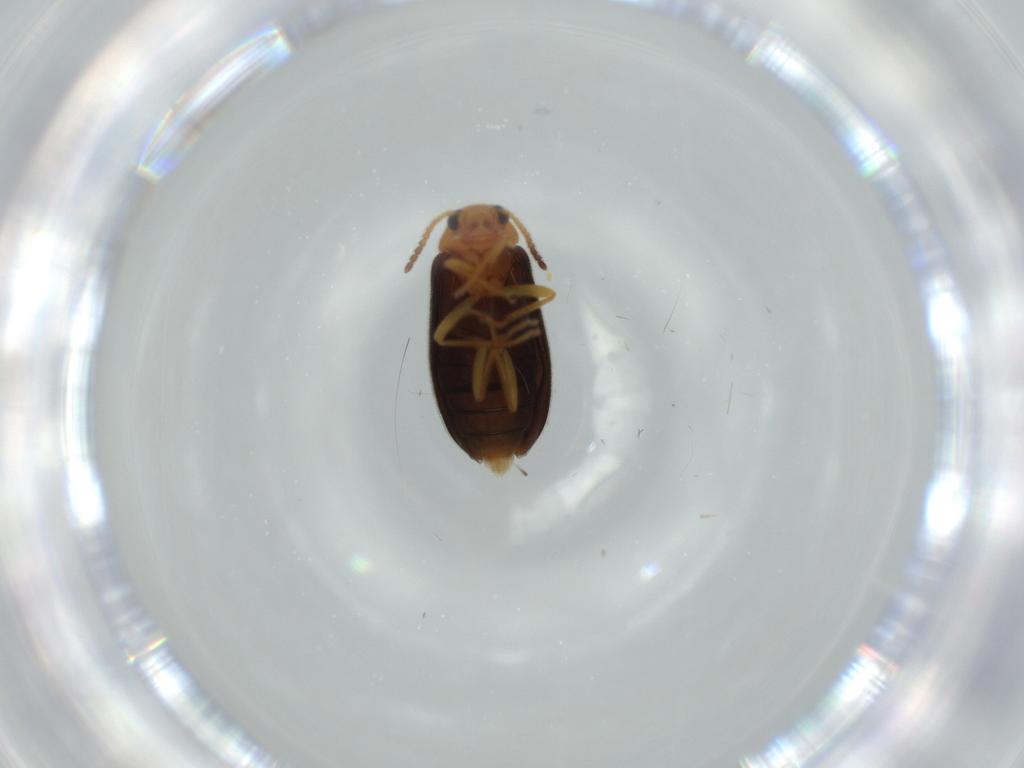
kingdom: Animalia
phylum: Arthropoda
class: Insecta
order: Coleoptera
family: Melandryidae
